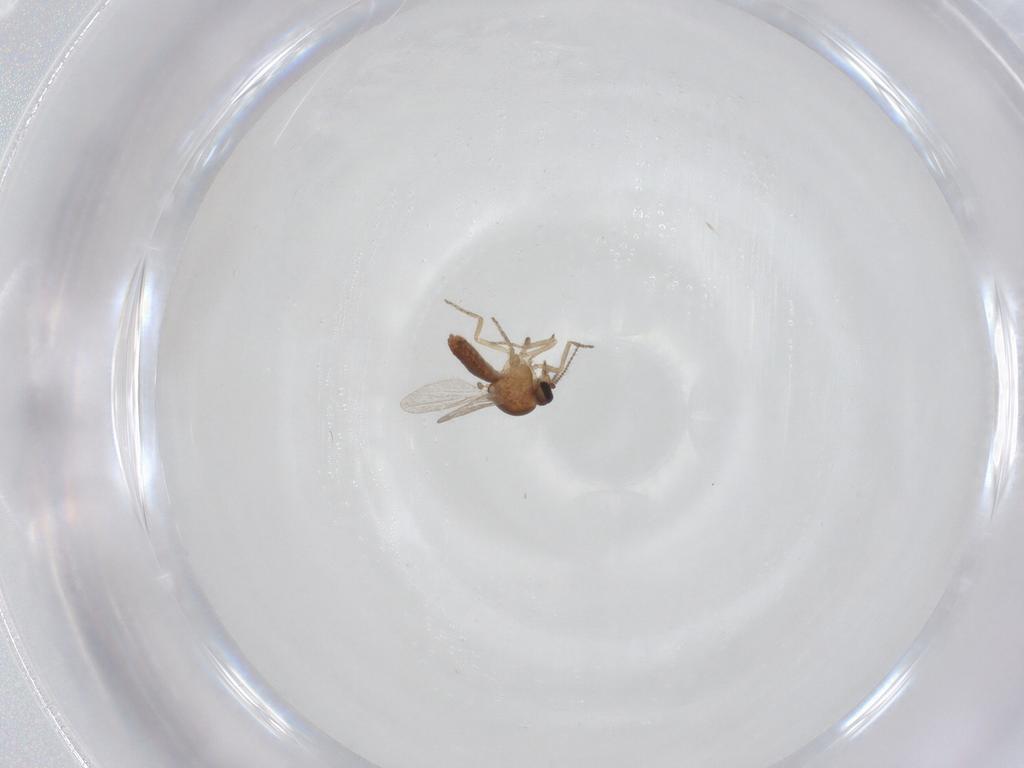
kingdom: Animalia
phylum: Arthropoda
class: Insecta
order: Diptera
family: Ceratopogonidae
